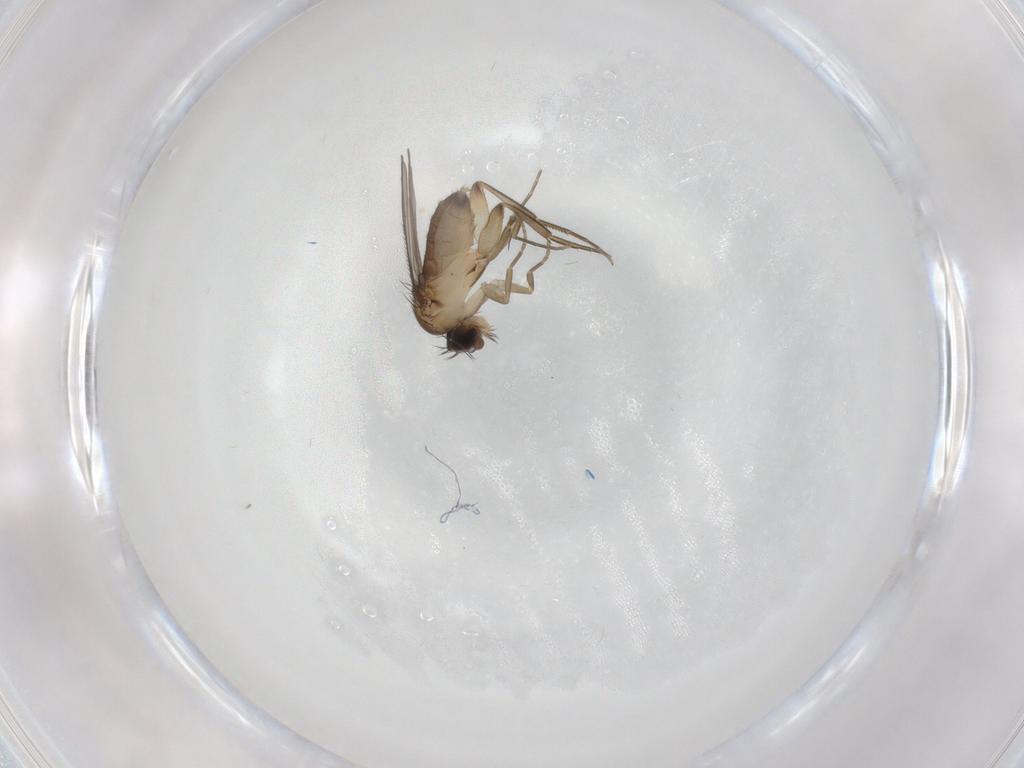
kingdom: Animalia
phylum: Arthropoda
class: Insecta
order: Diptera
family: Phoridae
